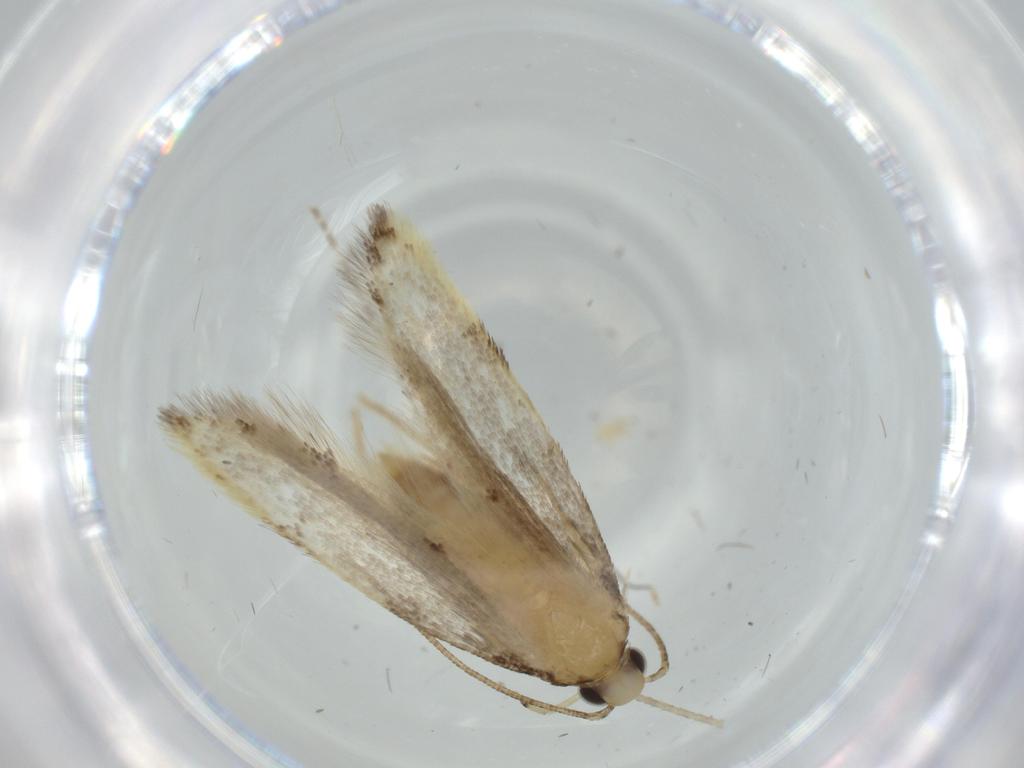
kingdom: Animalia
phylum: Arthropoda
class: Insecta
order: Lepidoptera
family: Autostichidae
